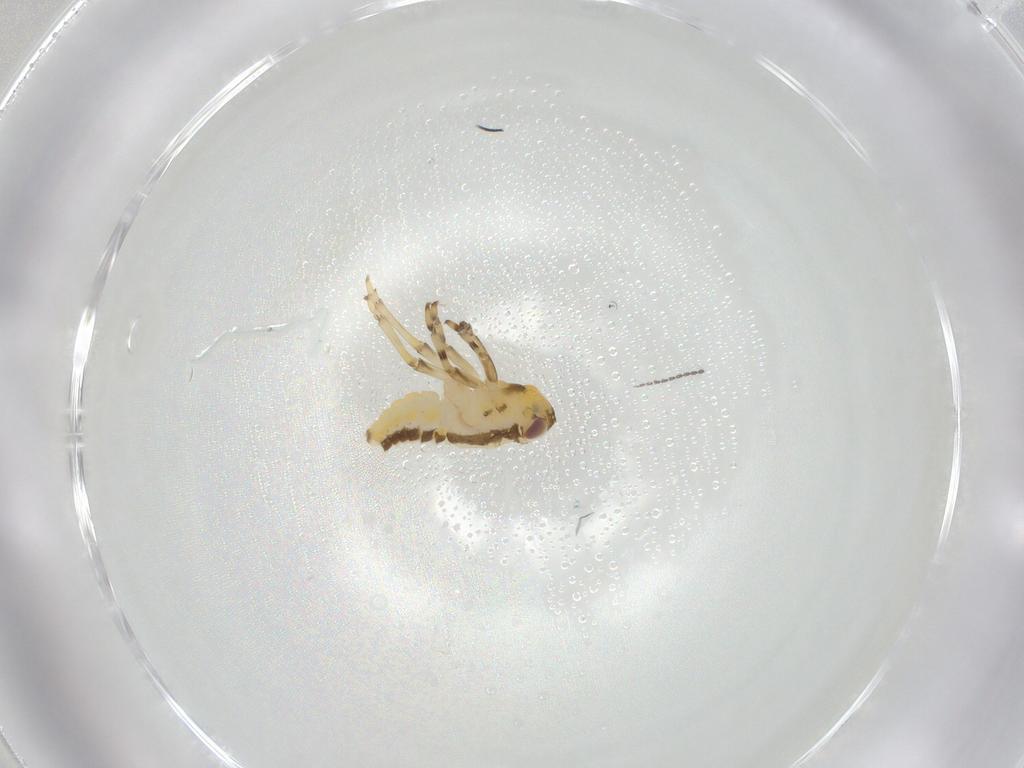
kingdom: Animalia
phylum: Arthropoda
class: Insecta
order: Hemiptera
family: Issidae
